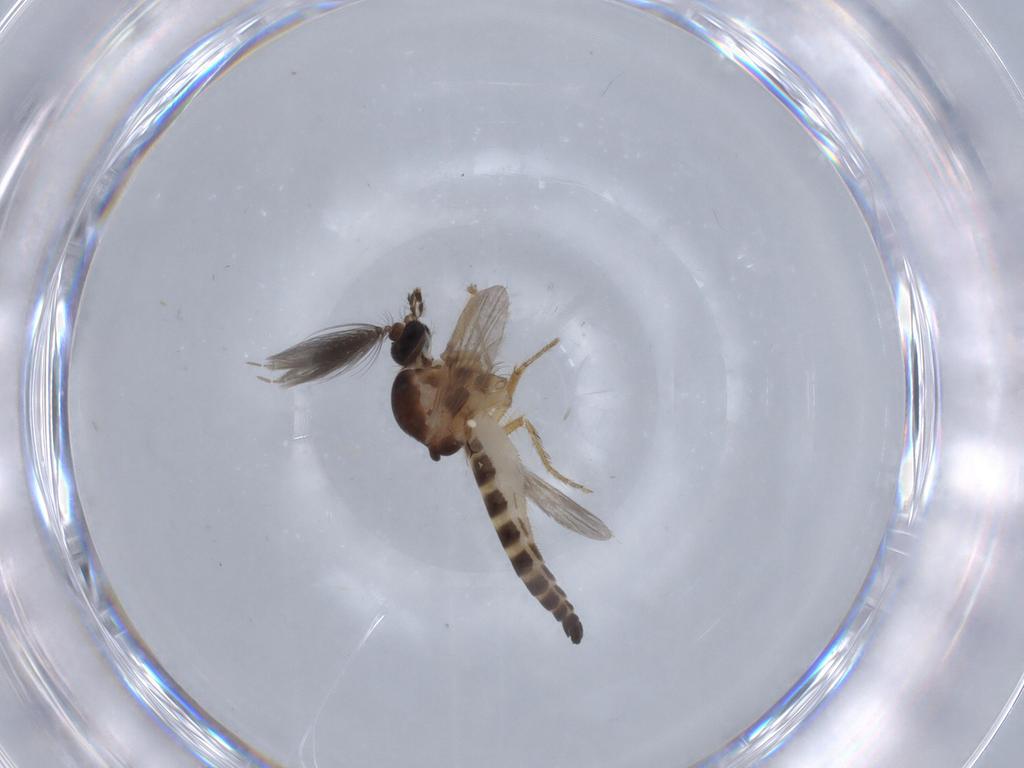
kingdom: Animalia
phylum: Arthropoda
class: Insecta
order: Diptera
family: Ceratopogonidae
